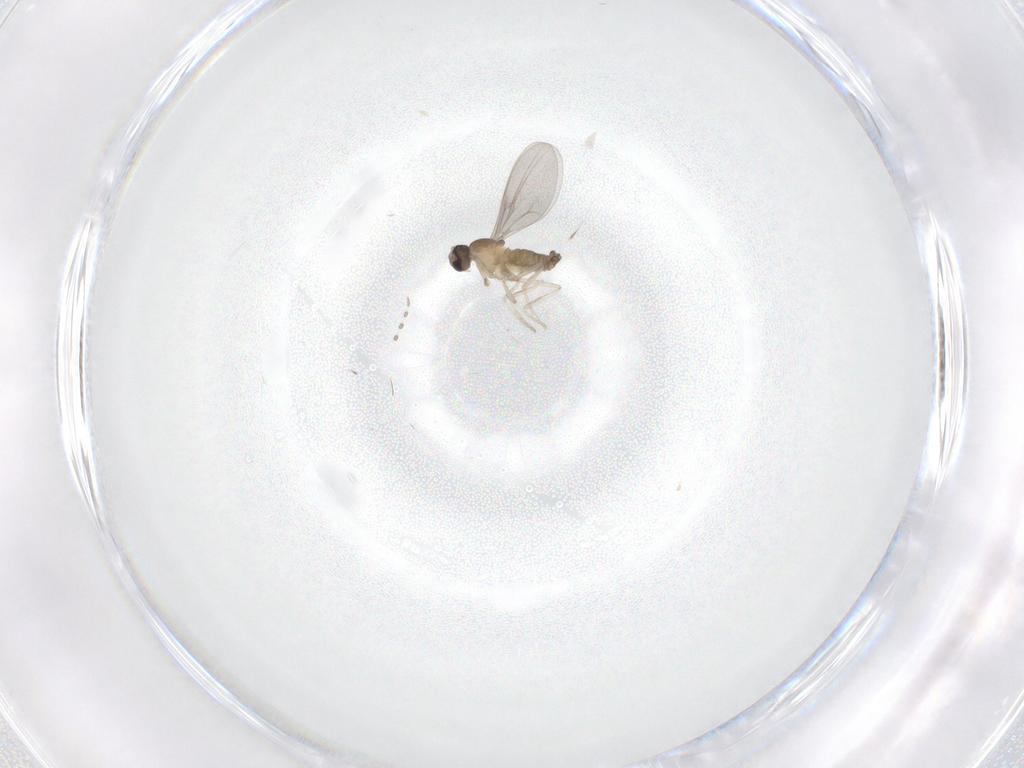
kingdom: Animalia
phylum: Arthropoda
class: Insecta
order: Diptera
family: Cecidomyiidae
